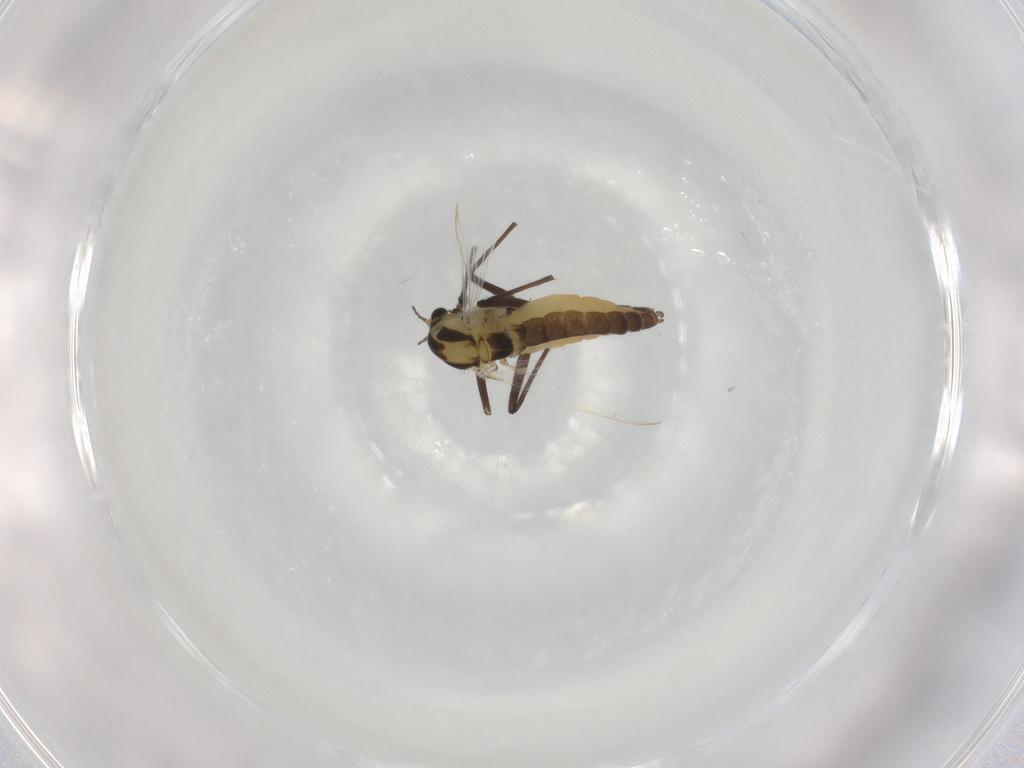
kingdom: Animalia
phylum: Arthropoda
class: Insecta
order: Diptera
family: Chironomidae
